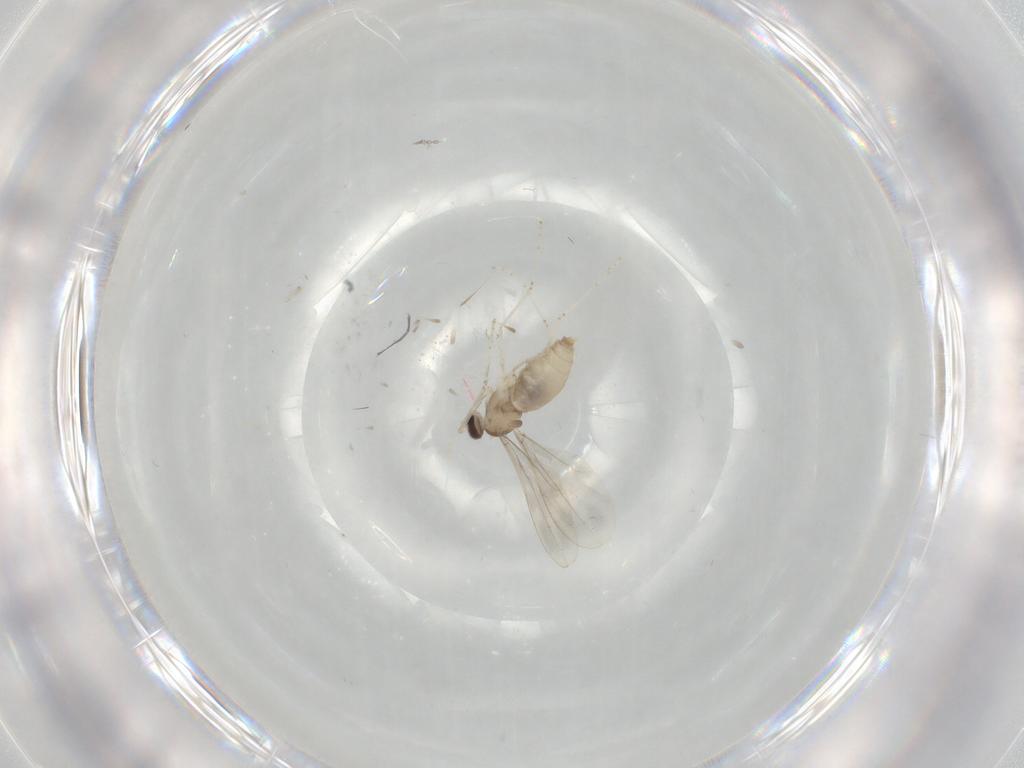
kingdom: Animalia
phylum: Arthropoda
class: Insecta
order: Diptera
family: Cecidomyiidae
